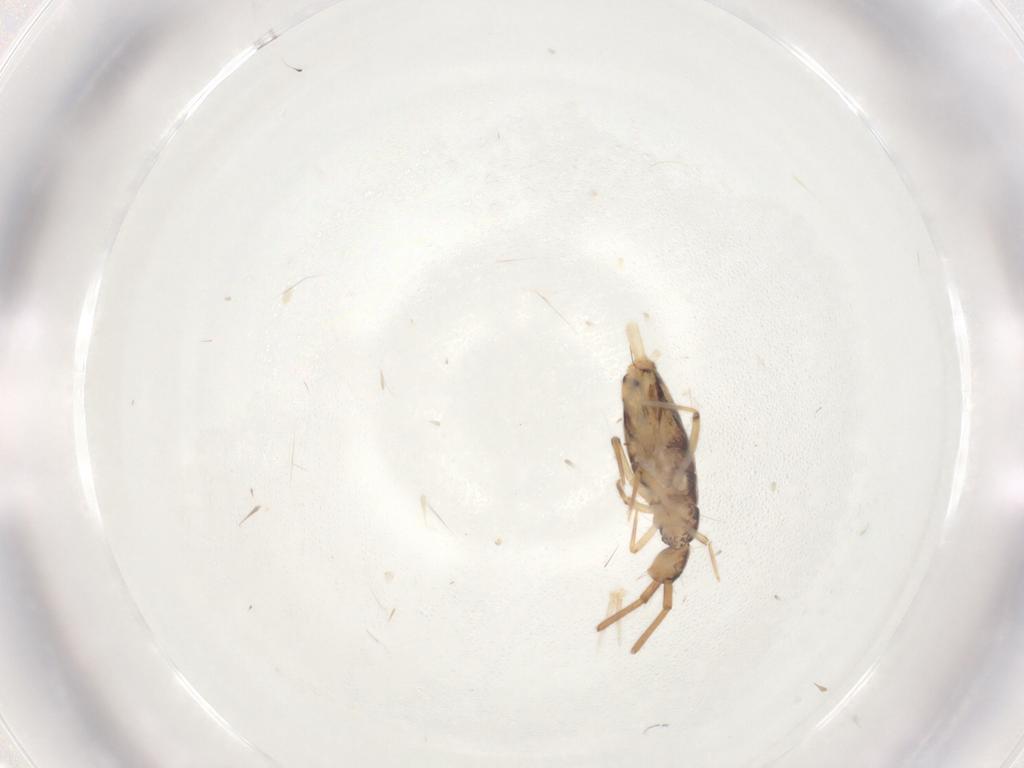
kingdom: Animalia
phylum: Arthropoda
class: Collembola
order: Entomobryomorpha
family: Entomobryidae
